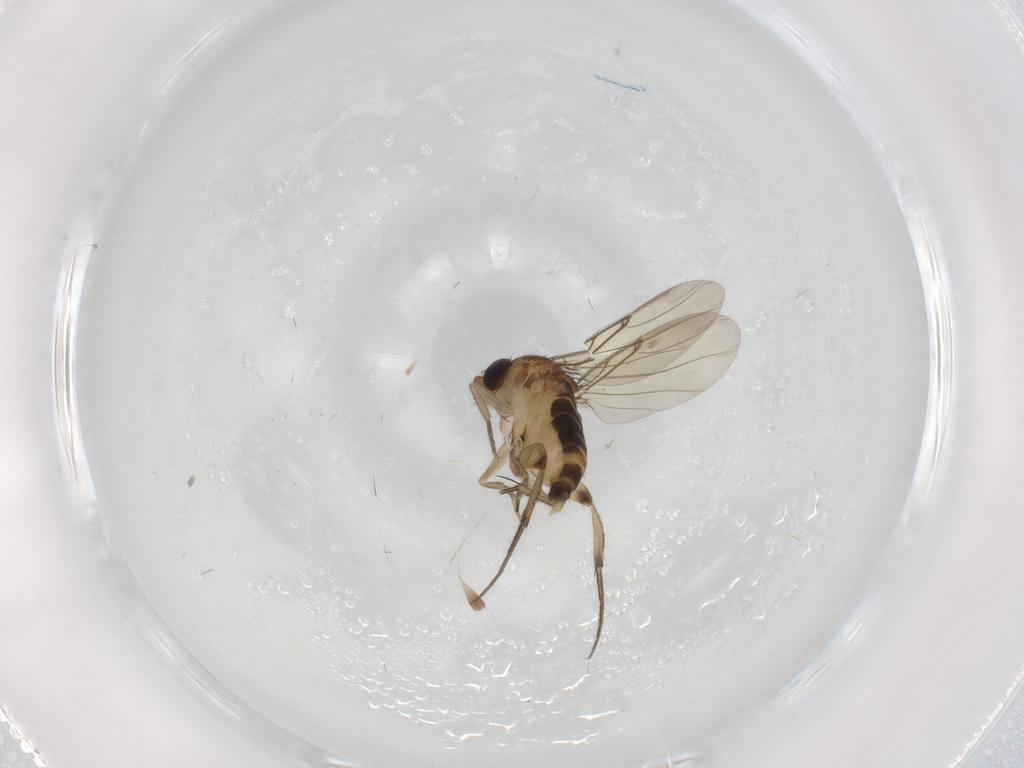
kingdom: Animalia
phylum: Arthropoda
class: Insecta
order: Diptera
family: Phoridae
